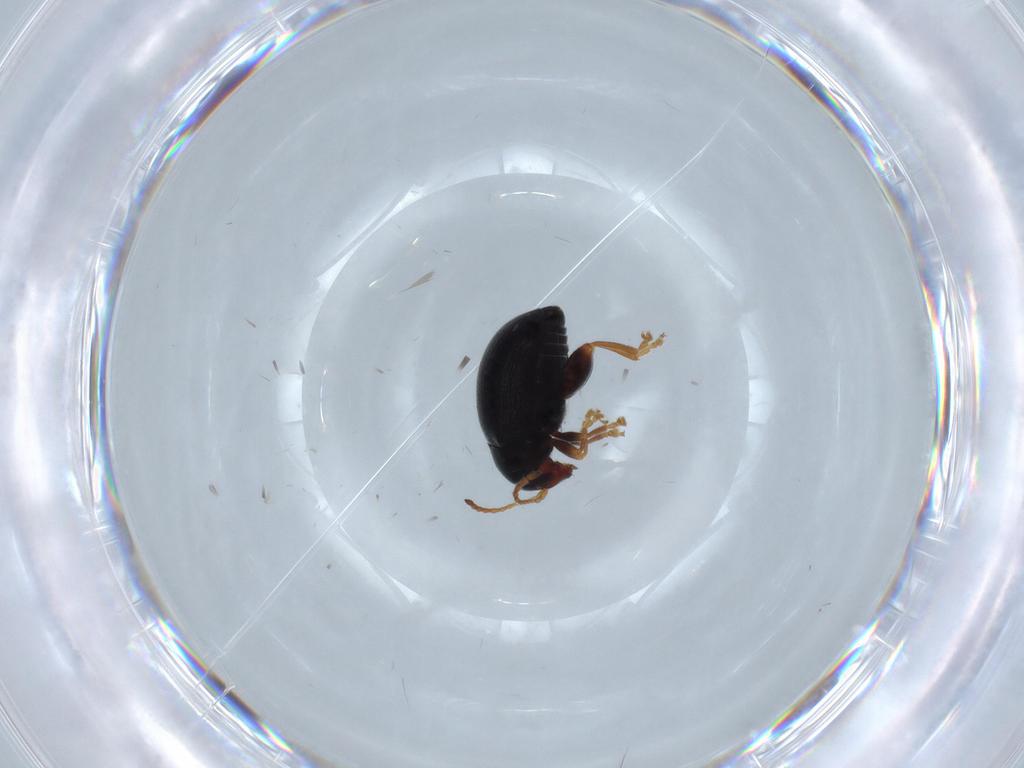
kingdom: Animalia
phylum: Arthropoda
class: Insecta
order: Coleoptera
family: Chrysomelidae
